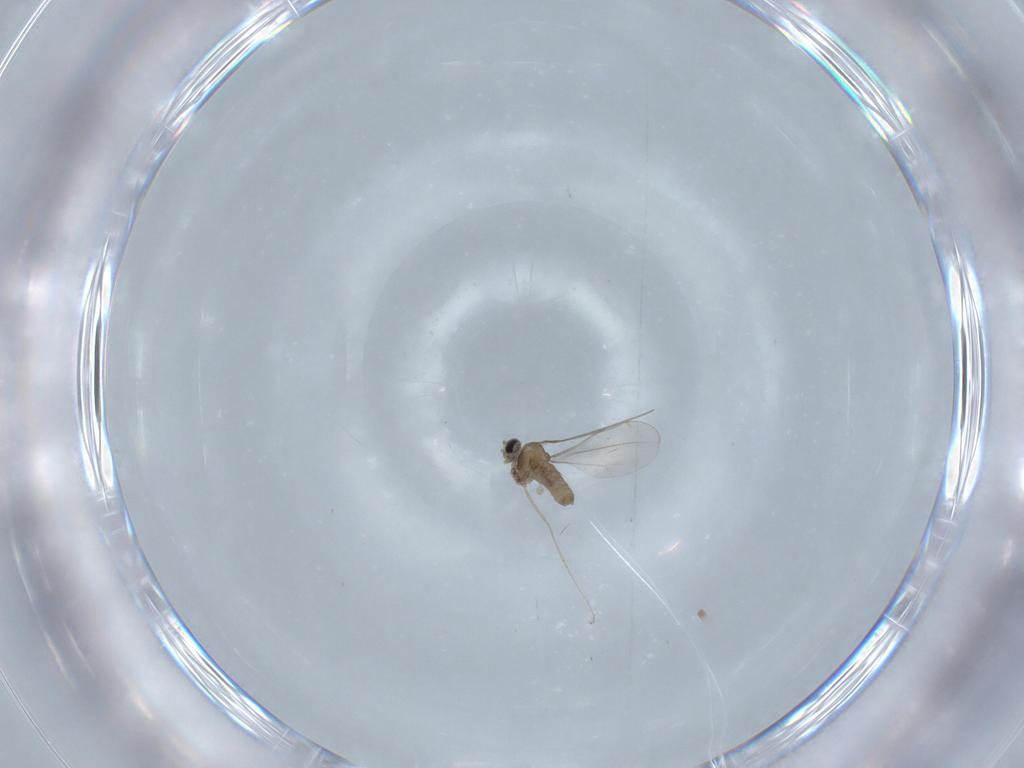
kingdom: Animalia
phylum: Arthropoda
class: Insecta
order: Diptera
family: Cecidomyiidae
